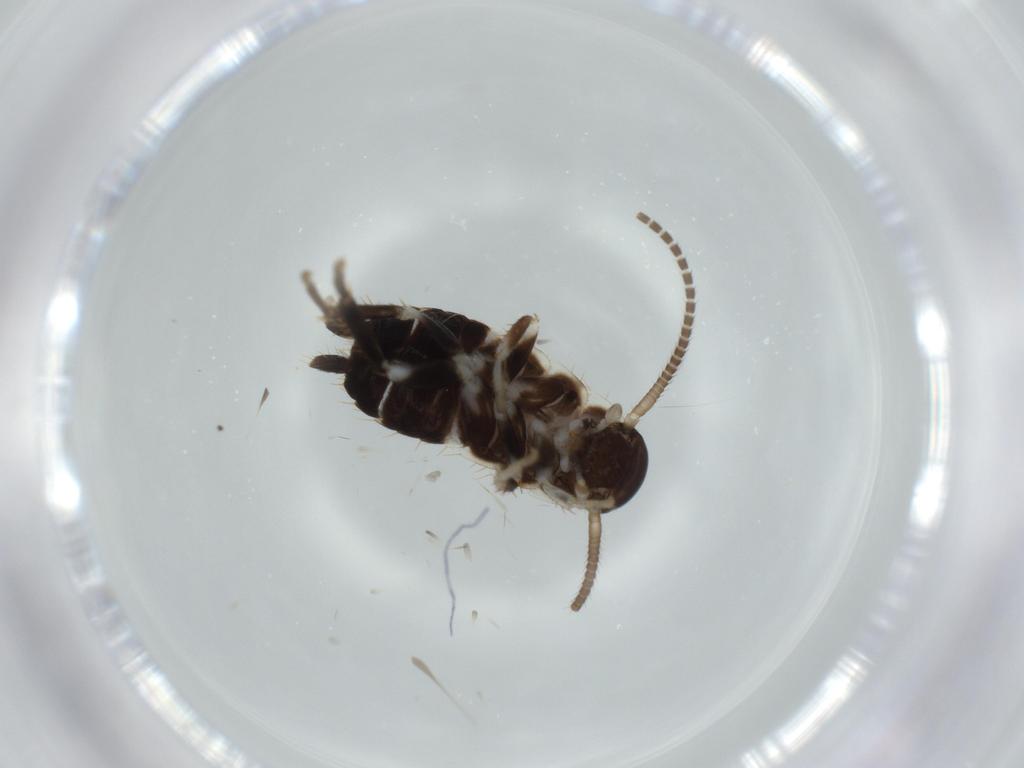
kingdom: Animalia
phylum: Arthropoda
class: Insecta
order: Blattodea
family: Ectobiidae
